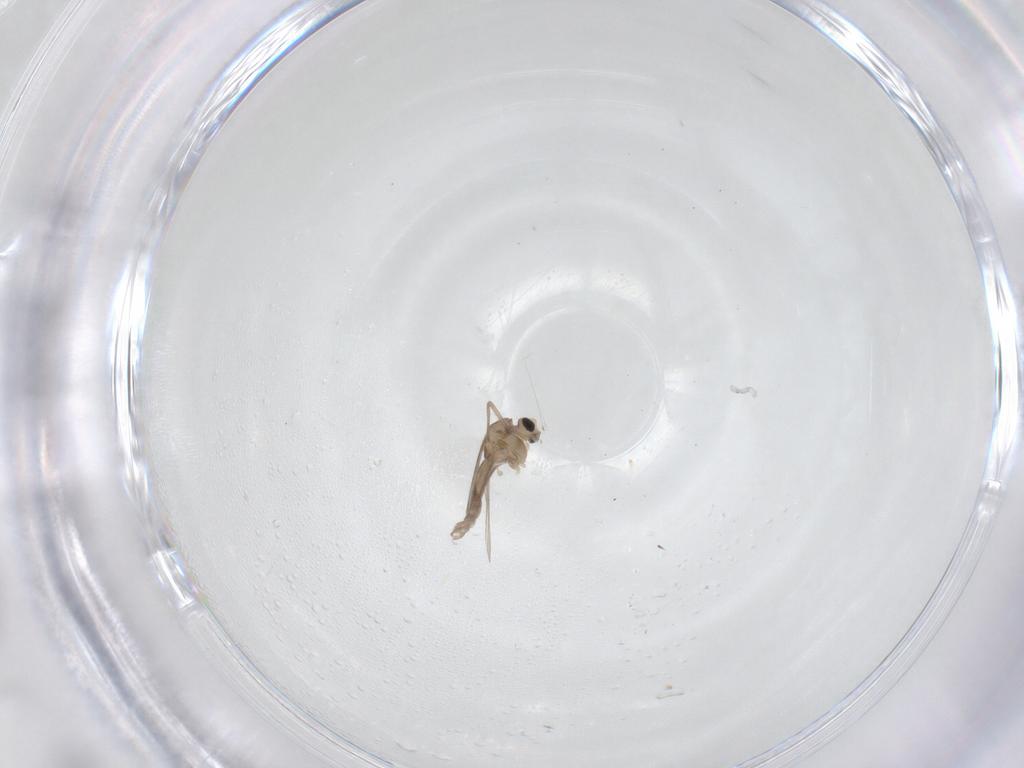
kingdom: Animalia
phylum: Arthropoda
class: Insecta
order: Diptera
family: Chironomidae
